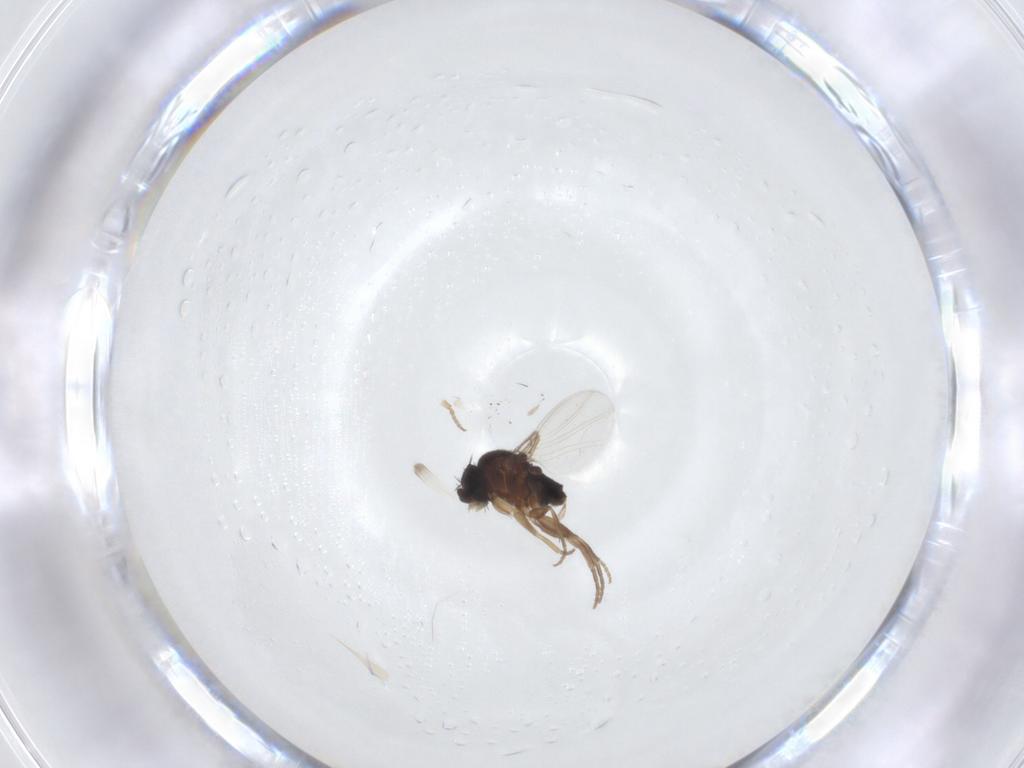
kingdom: Animalia
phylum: Arthropoda
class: Insecta
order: Diptera
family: Phoridae
